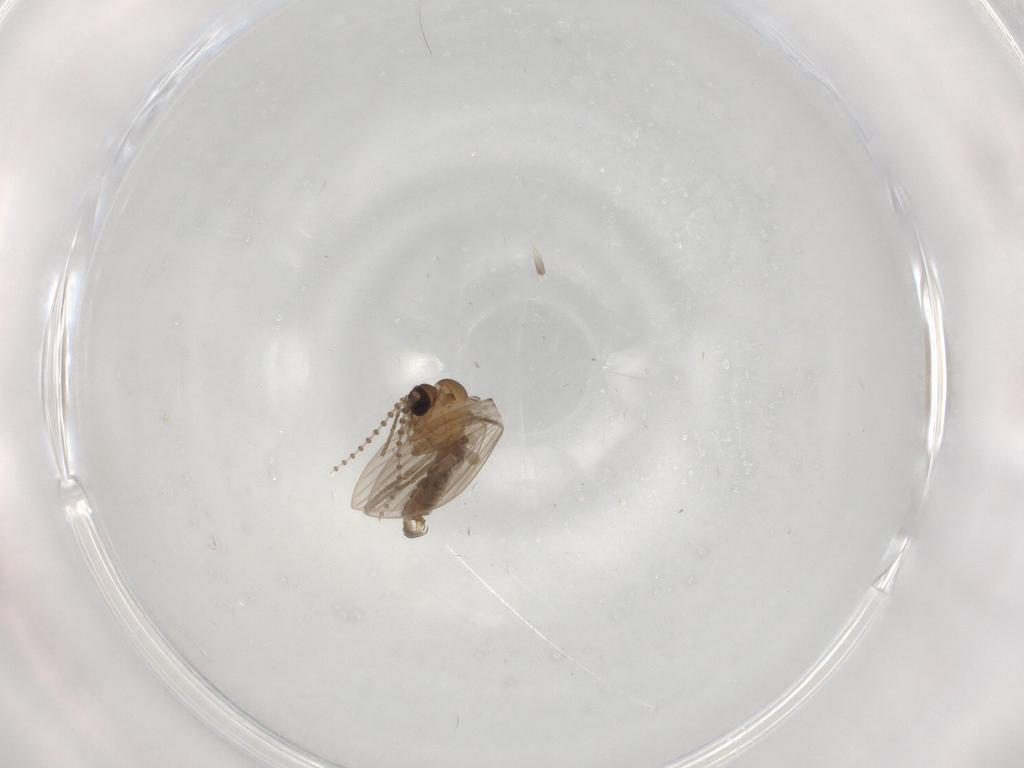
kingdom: Animalia
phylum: Arthropoda
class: Insecta
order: Diptera
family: Psychodidae
